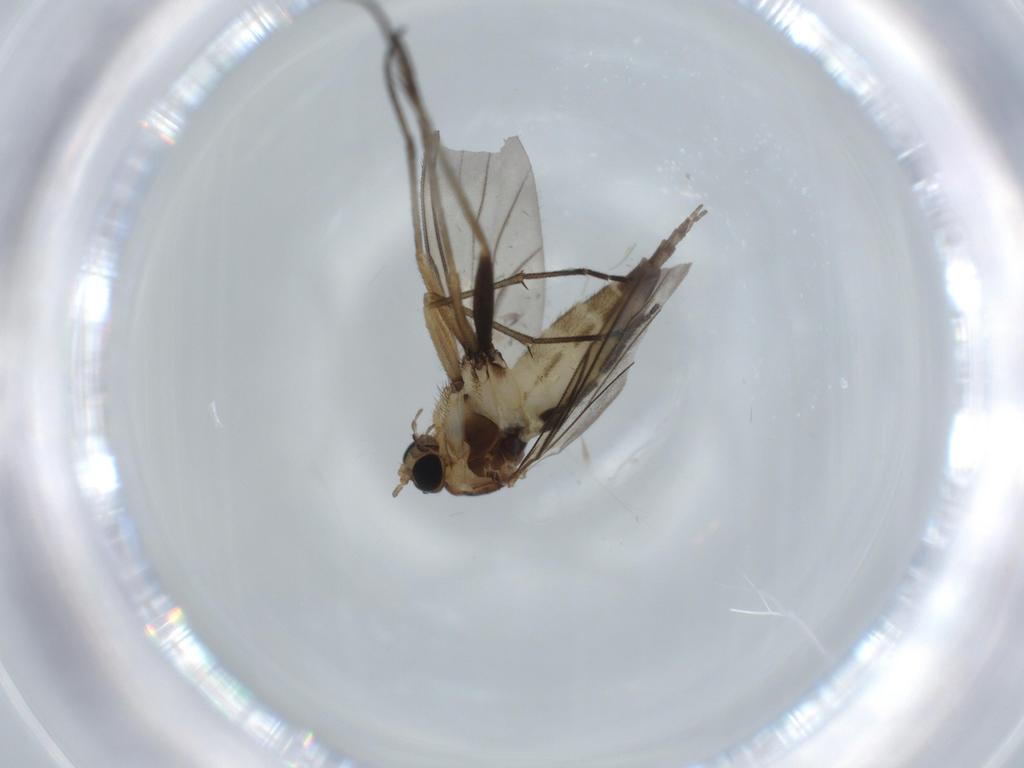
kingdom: Animalia
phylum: Arthropoda
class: Insecta
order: Diptera
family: Sciaridae
